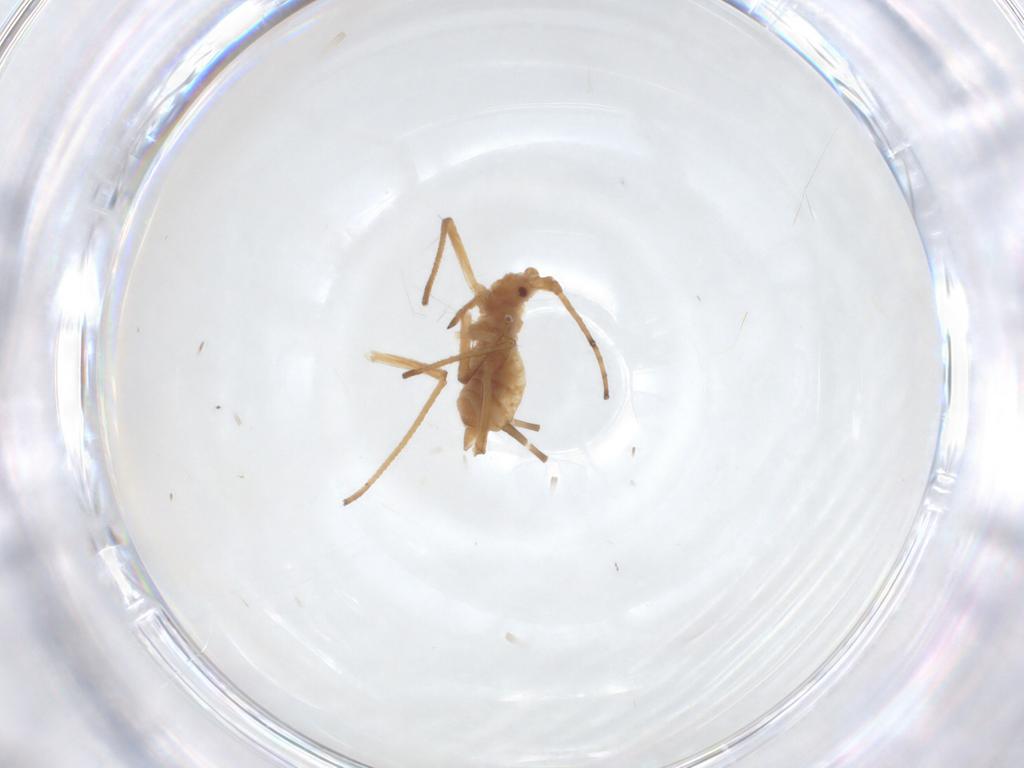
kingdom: Animalia
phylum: Arthropoda
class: Insecta
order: Hemiptera
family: Aphididae
